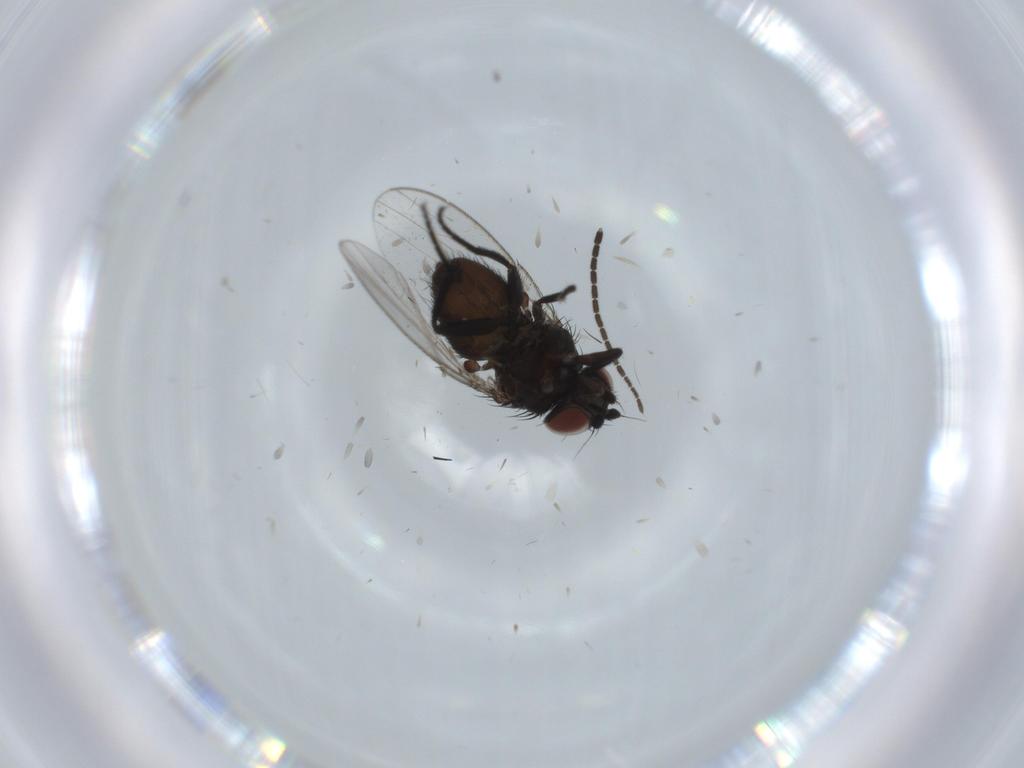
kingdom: Animalia
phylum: Arthropoda
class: Insecta
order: Diptera
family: Milichiidae
